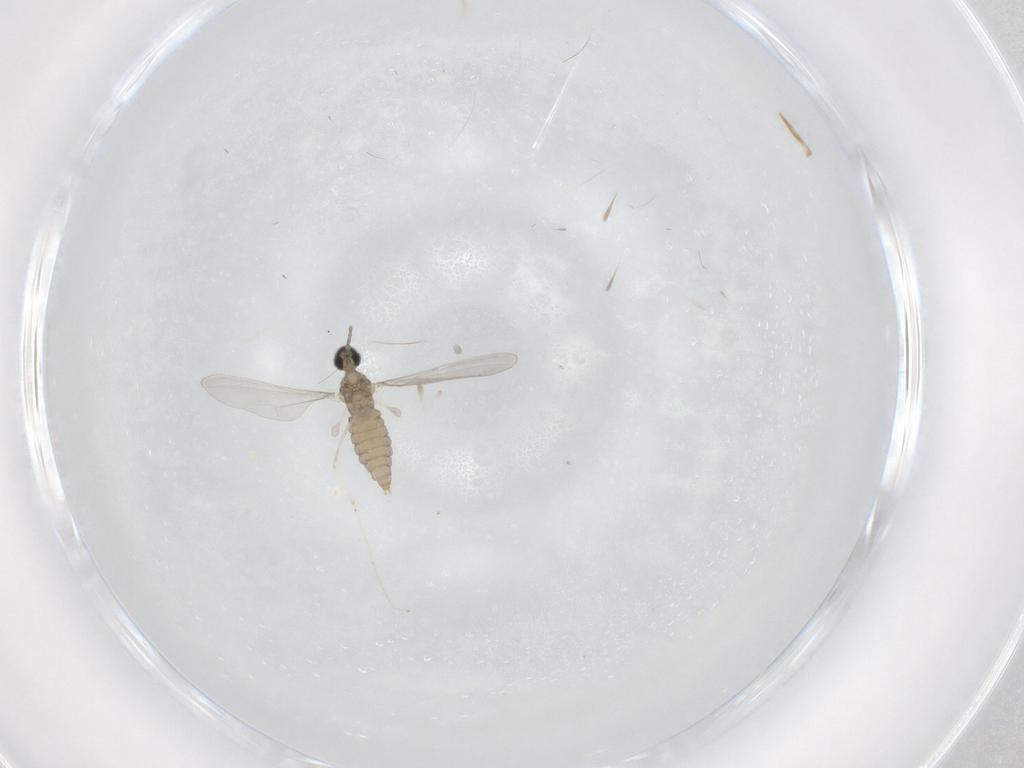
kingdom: Animalia
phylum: Arthropoda
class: Insecta
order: Diptera
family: Cecidomyiidae
